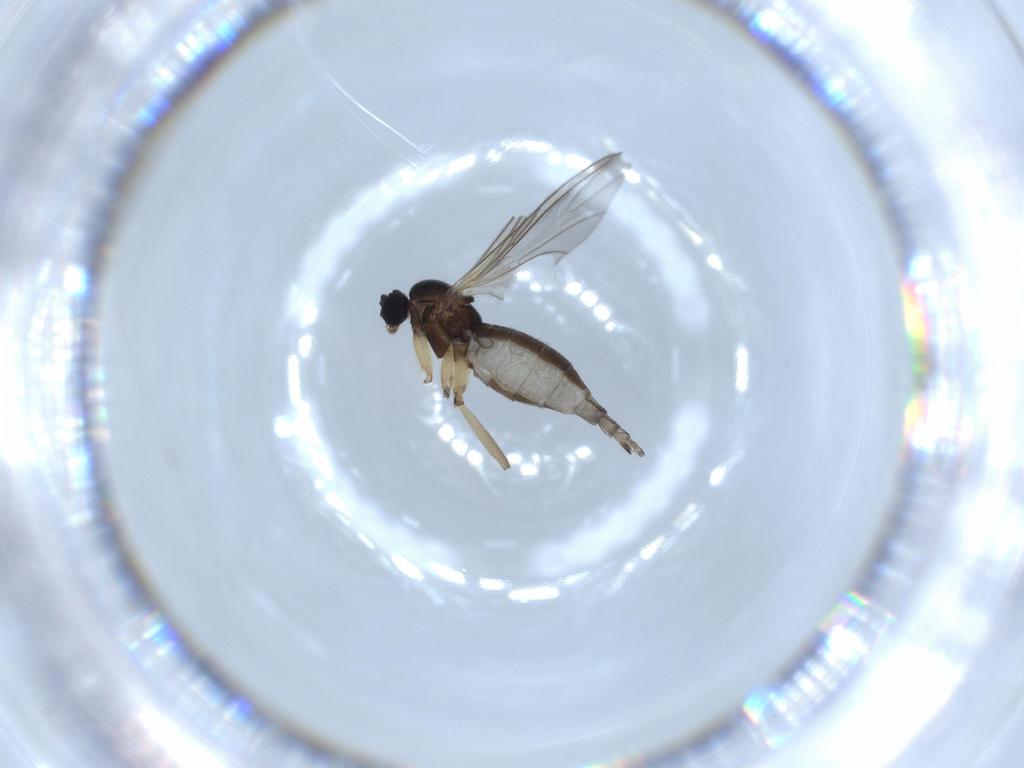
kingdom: Animalia
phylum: Arthropoda
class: Insecta
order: Diptera
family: Sciaridae
